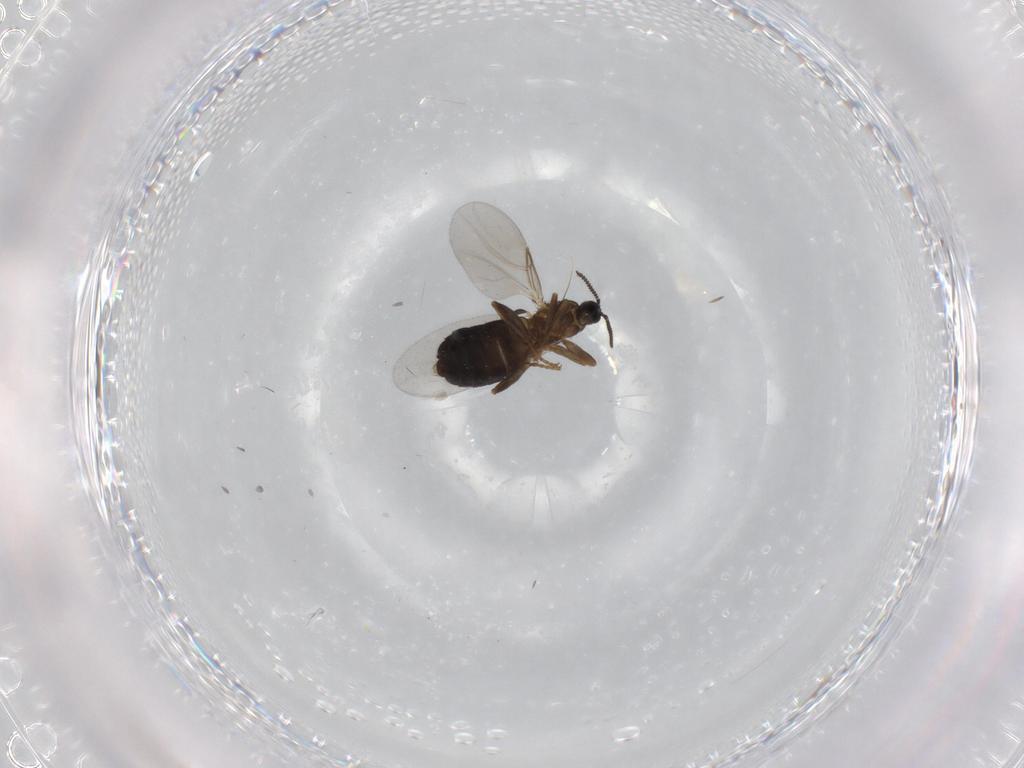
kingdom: Animalia
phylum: Arthropoda
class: Insecta
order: Diptera
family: Scatopsidae
